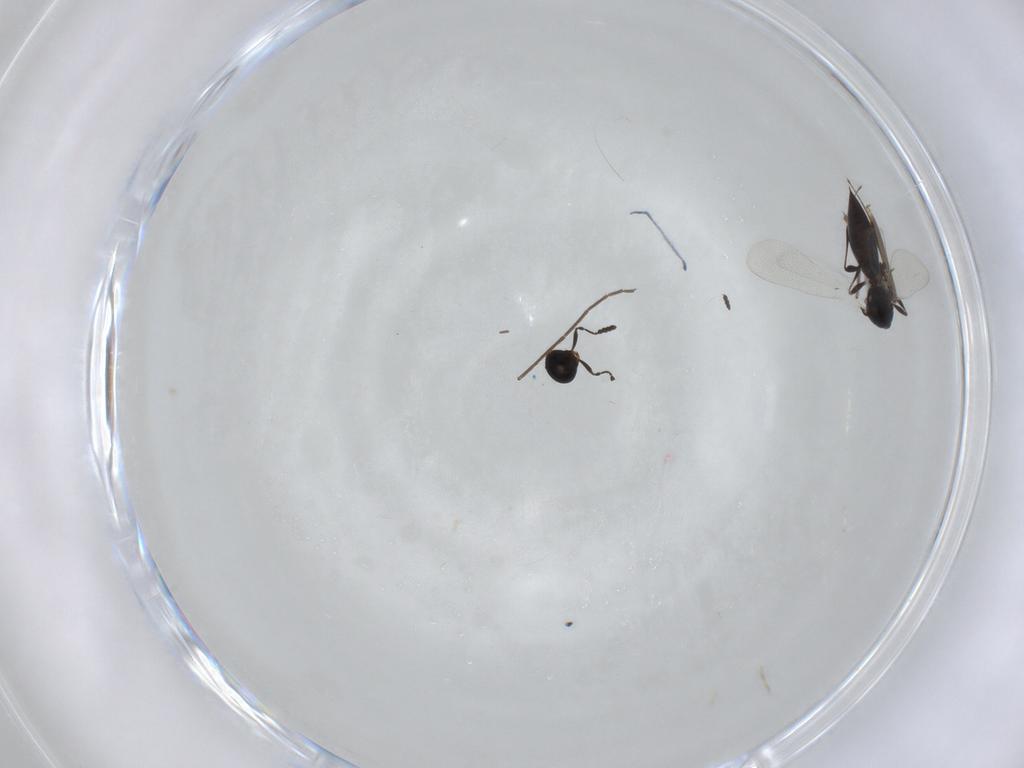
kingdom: Animalia
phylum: Arthropoda
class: Insecta
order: Hymenoptera
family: Platygastridae
